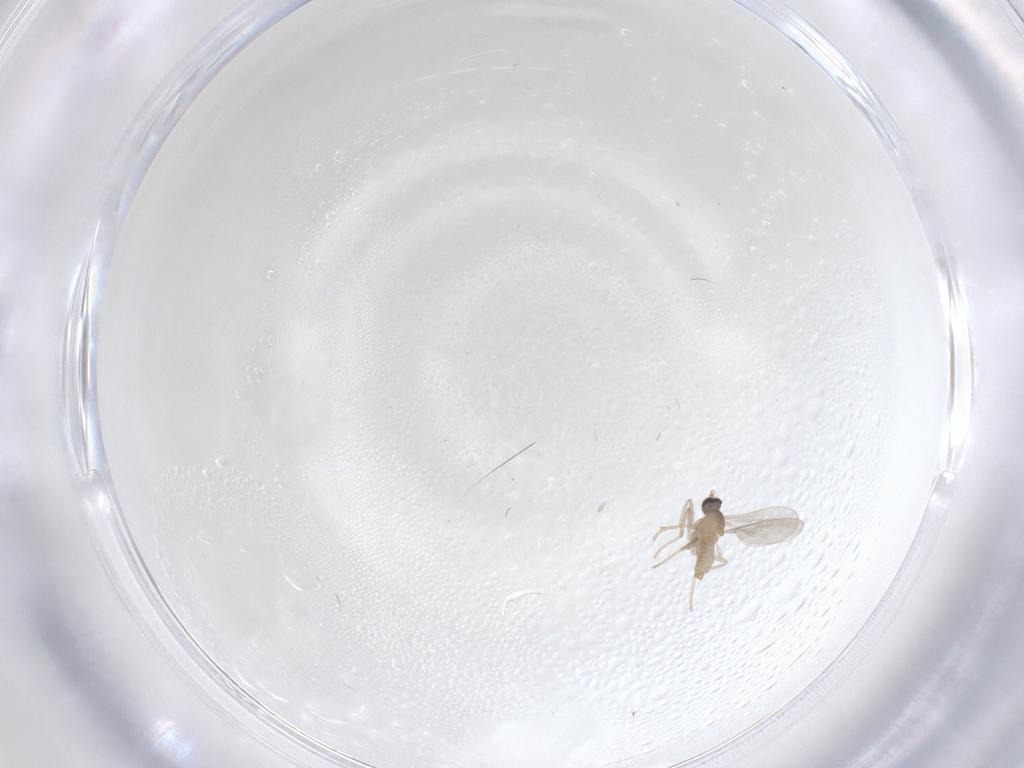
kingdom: Animalia
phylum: Arthropoda
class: Insecta
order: Diptera
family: Cecidomyiidae
